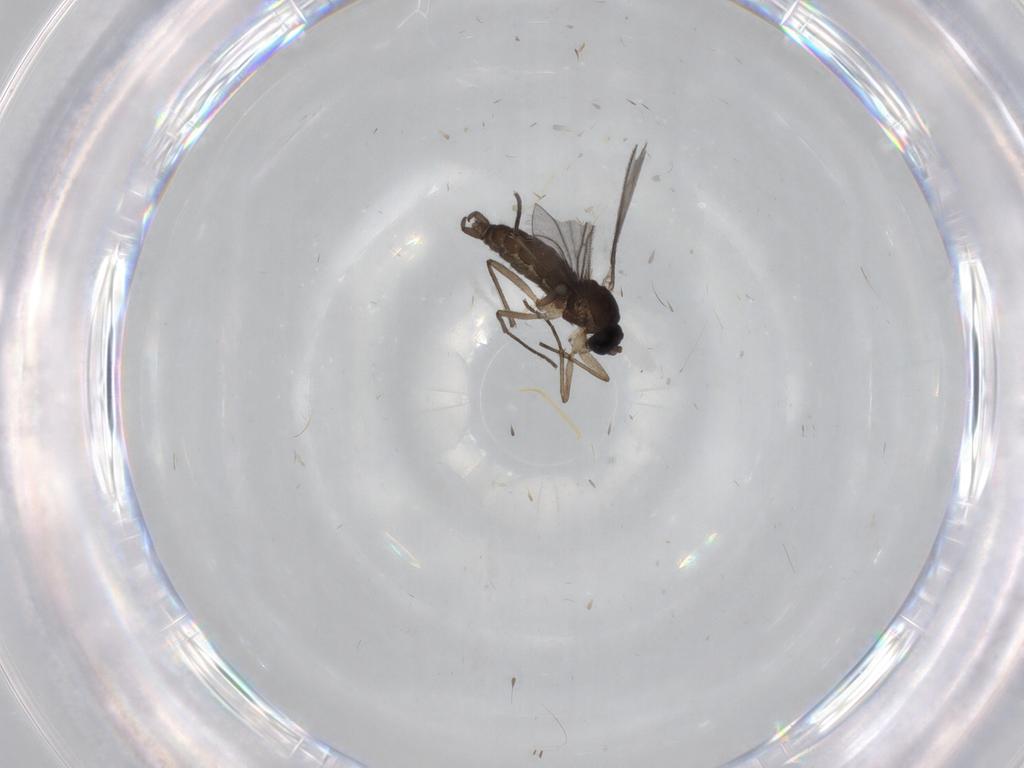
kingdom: Animalia
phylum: Arthropoda
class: Insecta
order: Diptera
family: Sciaridae
